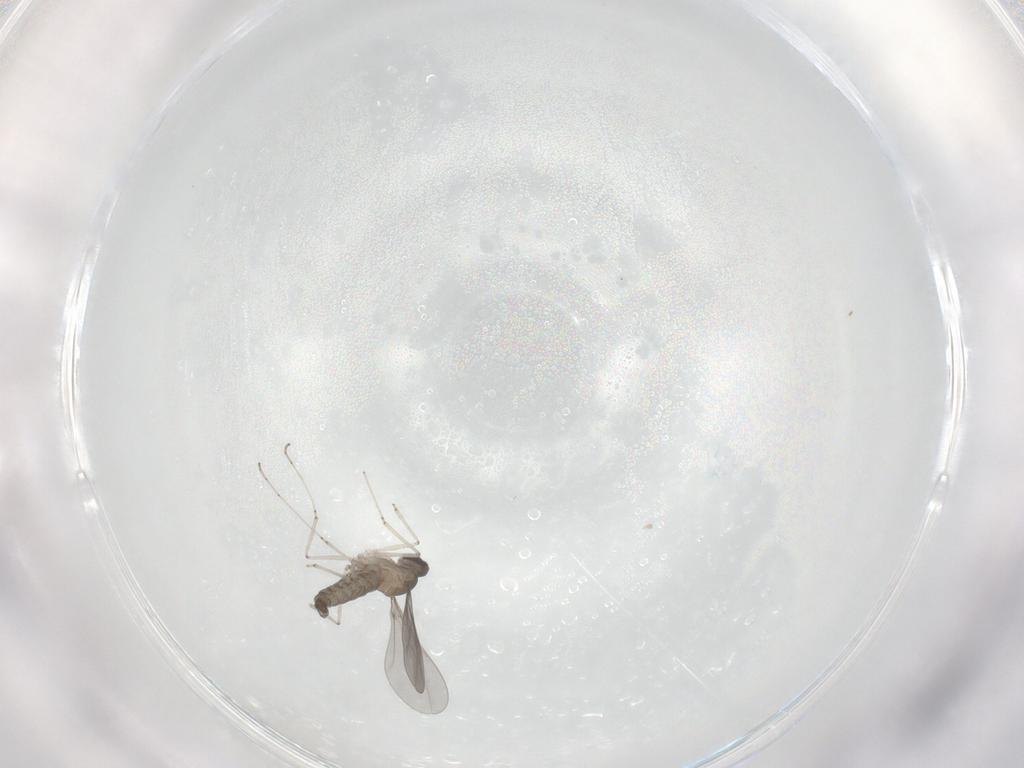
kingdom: Animalia
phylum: Arthropoda
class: Insecta
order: Diptera
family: Cecidomyiidae
